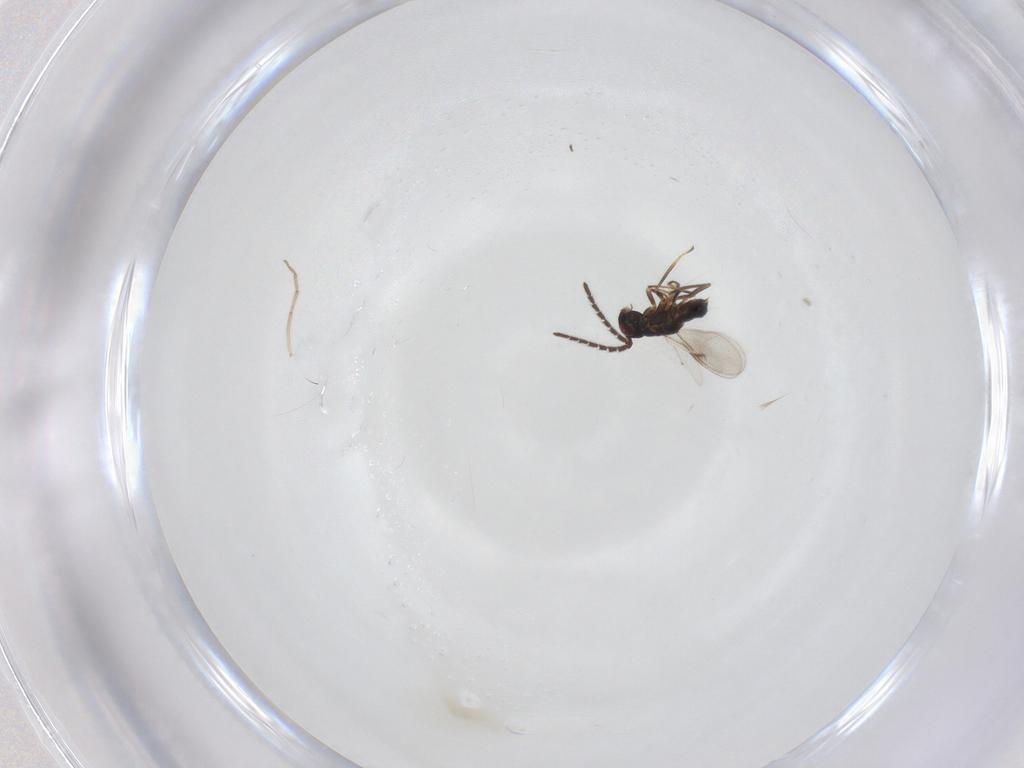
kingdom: Animalia
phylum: Arthropoda
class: Insecta
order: Hymenoptera
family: Encyrtidae
